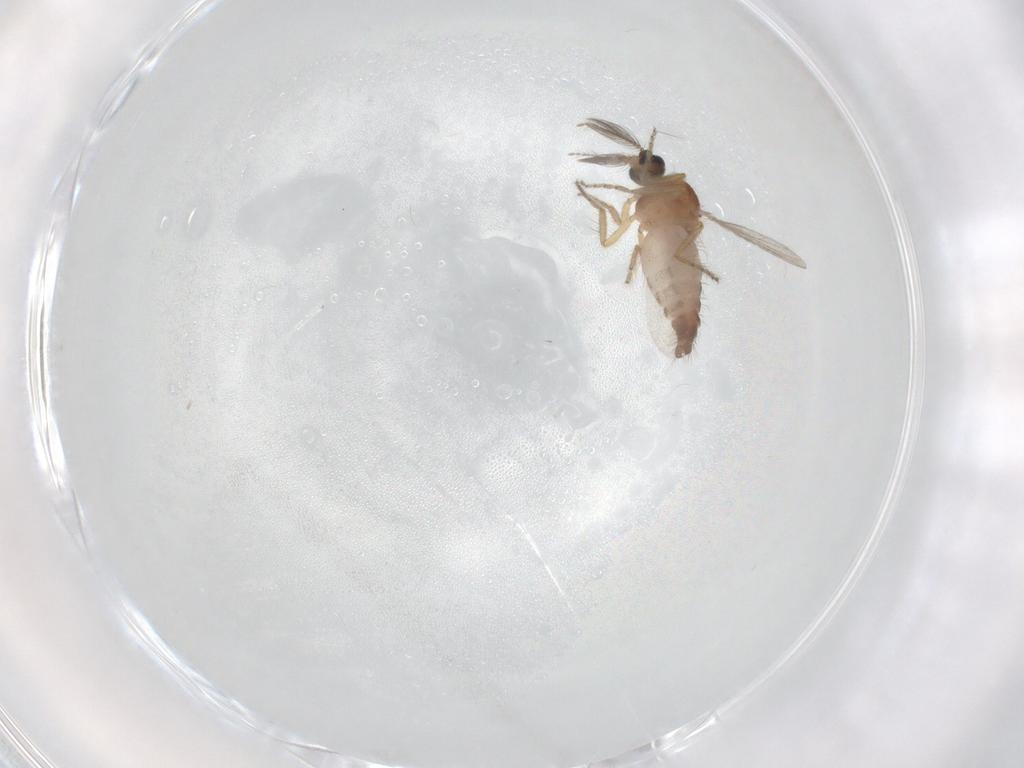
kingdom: Animalia
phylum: Arthropoda
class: Insecta
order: Diptera
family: Ceratopogonidae
